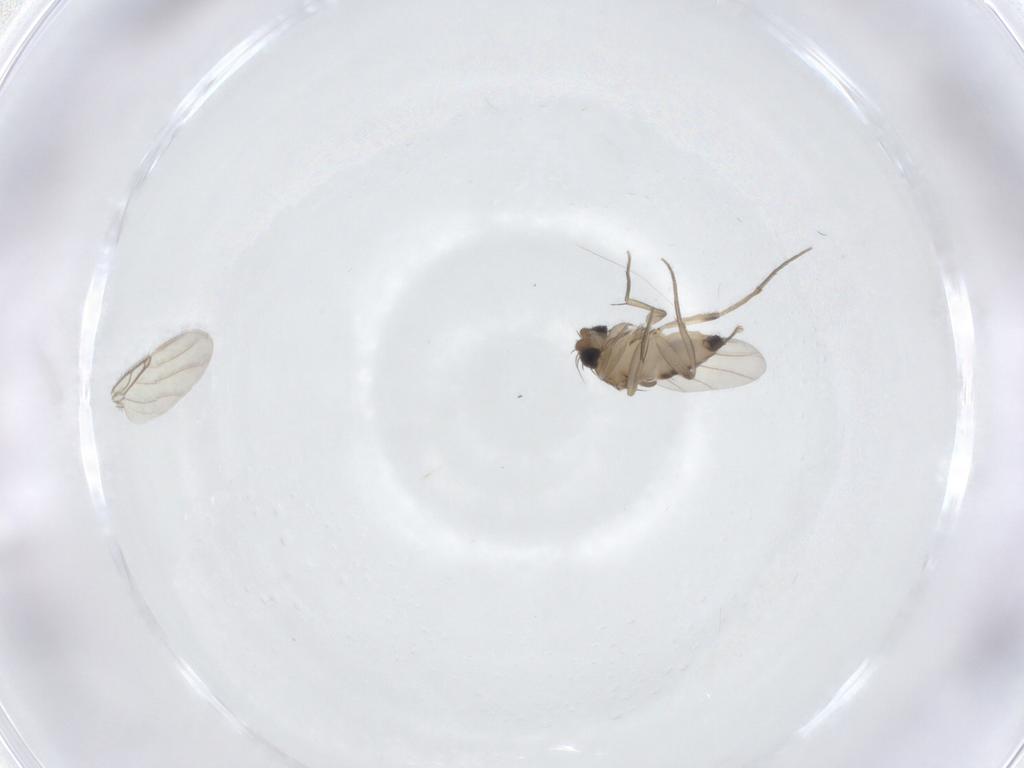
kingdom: Animalia
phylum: Arthropoda
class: Insecta
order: Diptera
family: Phoridae
